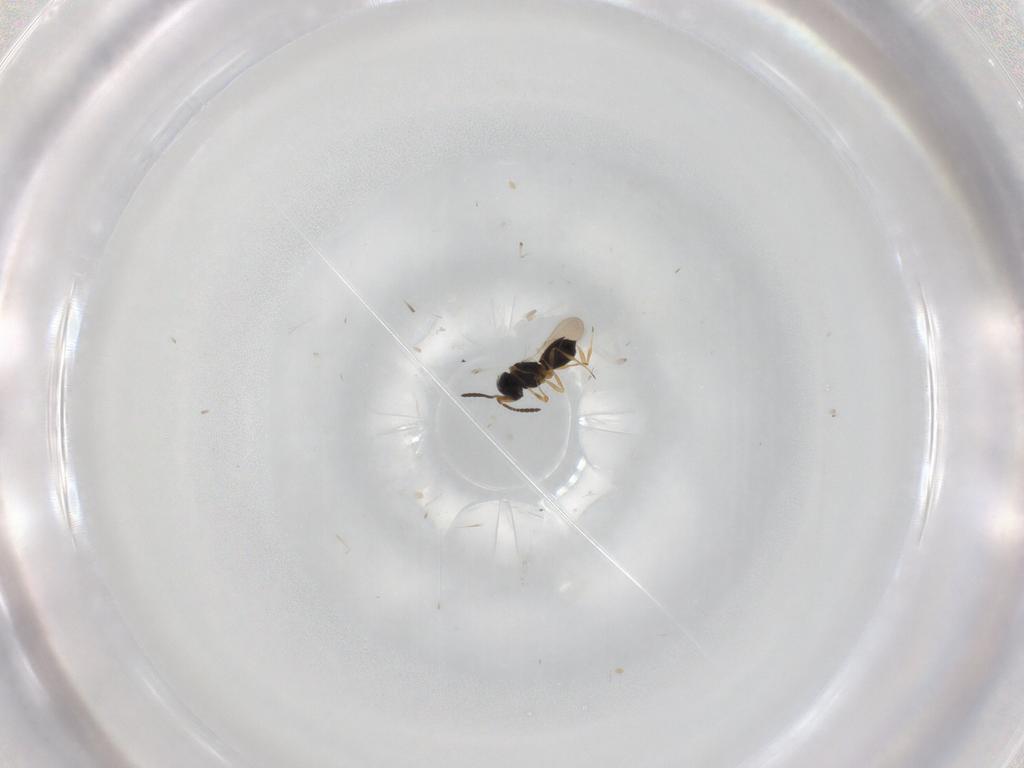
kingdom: Animalia
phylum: Arthropoda
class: Insecta
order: Hymenoptera
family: Scelionidae
